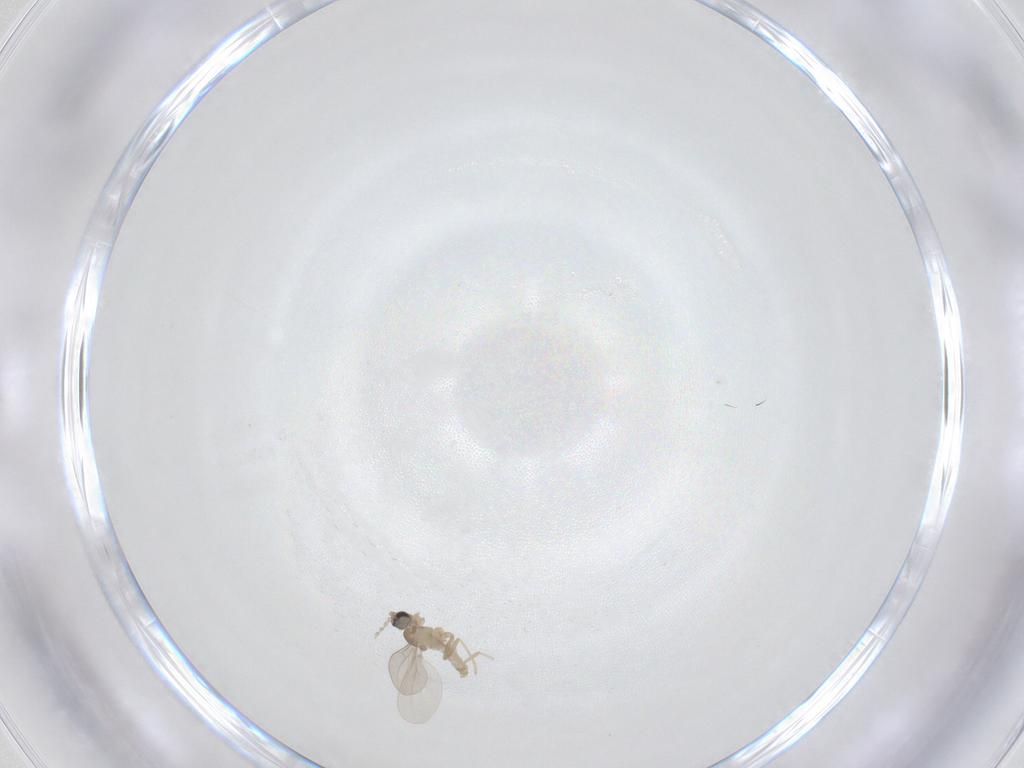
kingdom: Animalia
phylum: Arthropoda
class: Insecta
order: Diptera
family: Cecidomyiidae
